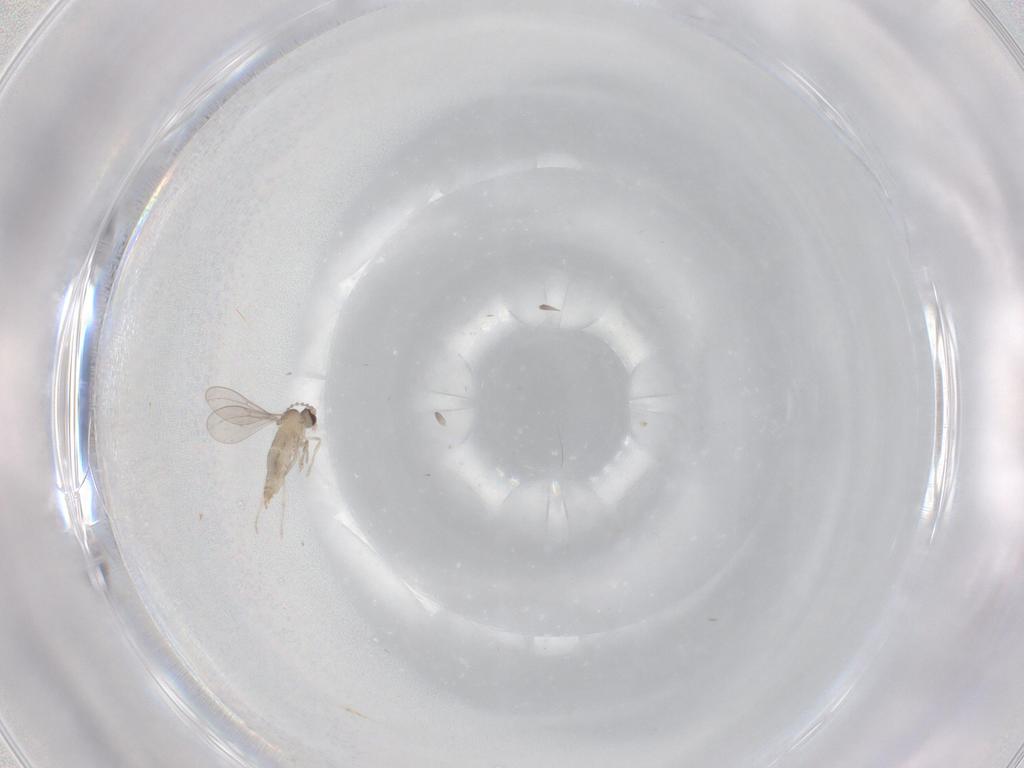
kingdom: Animalia
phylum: Arthropoda
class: Insecta
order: Diptera
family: Cecidomyiidae
